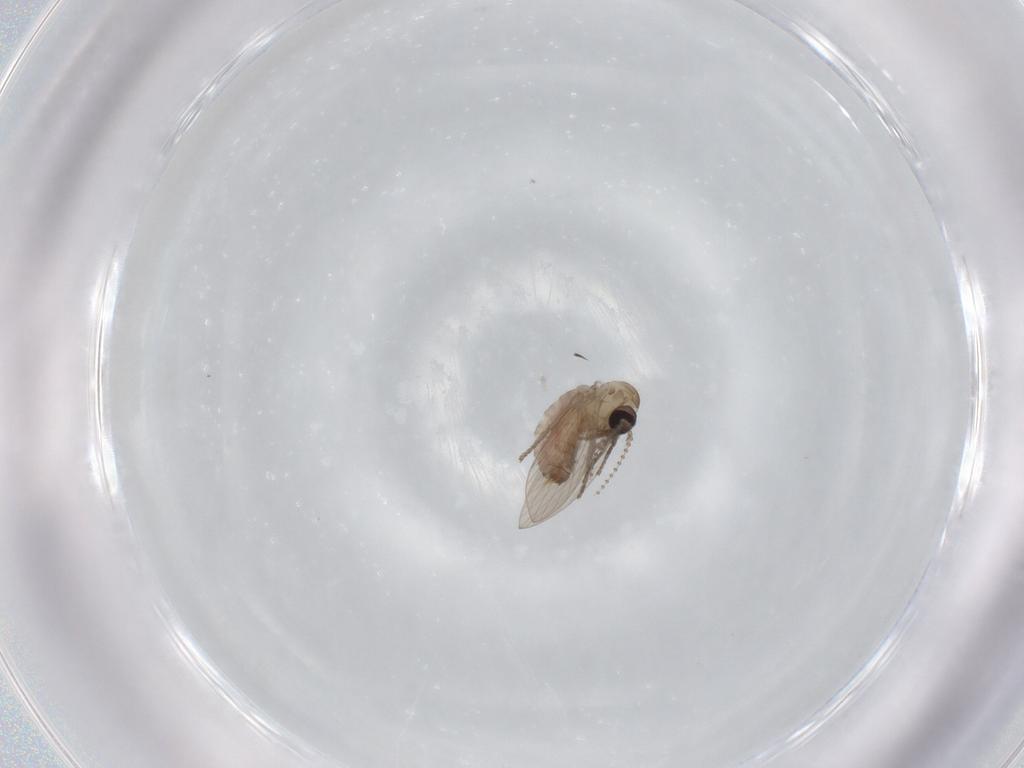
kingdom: Animalia
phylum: Arthropoda
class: Insecta
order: Diptera
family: Psychodidae
